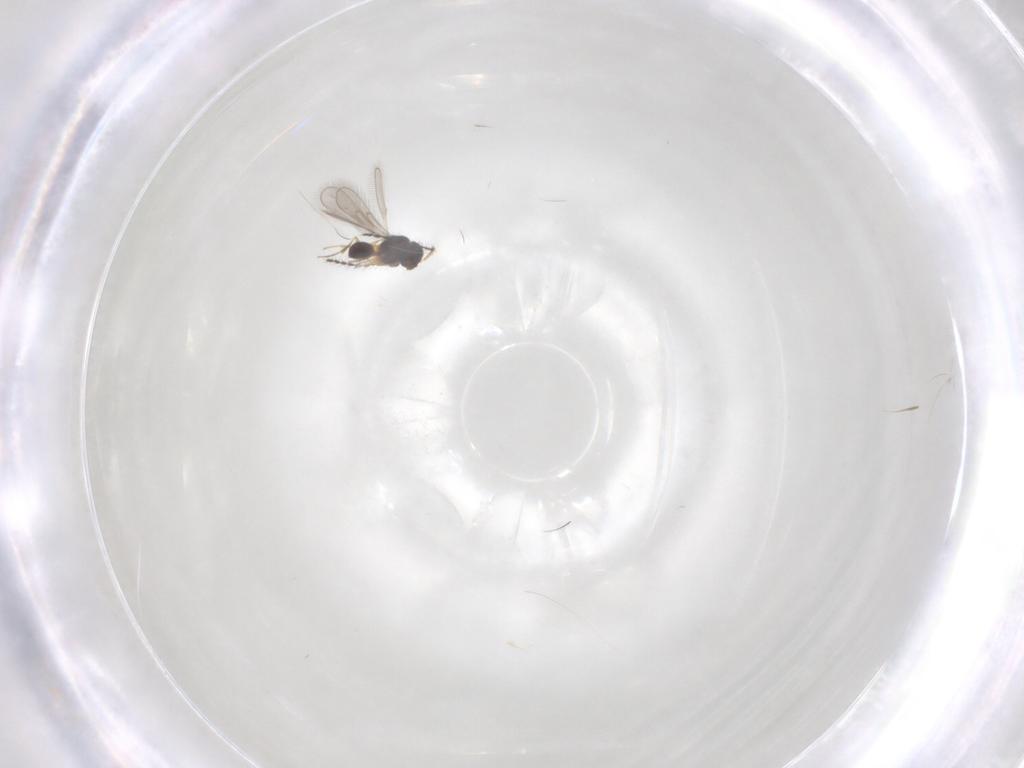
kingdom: Animalia
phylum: Arthropoda
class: Insecta
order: Hymenoptera
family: Scelionidae
